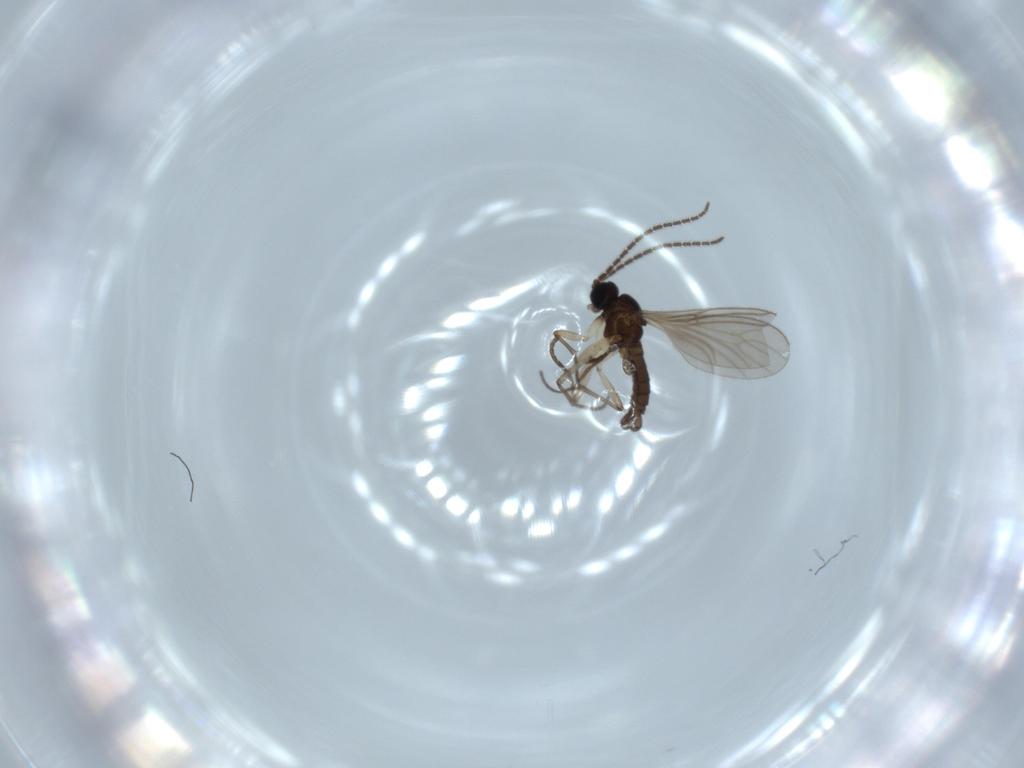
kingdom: Animalia
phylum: Arthropoda
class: Insecta
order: Diptera
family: Sciaridae
